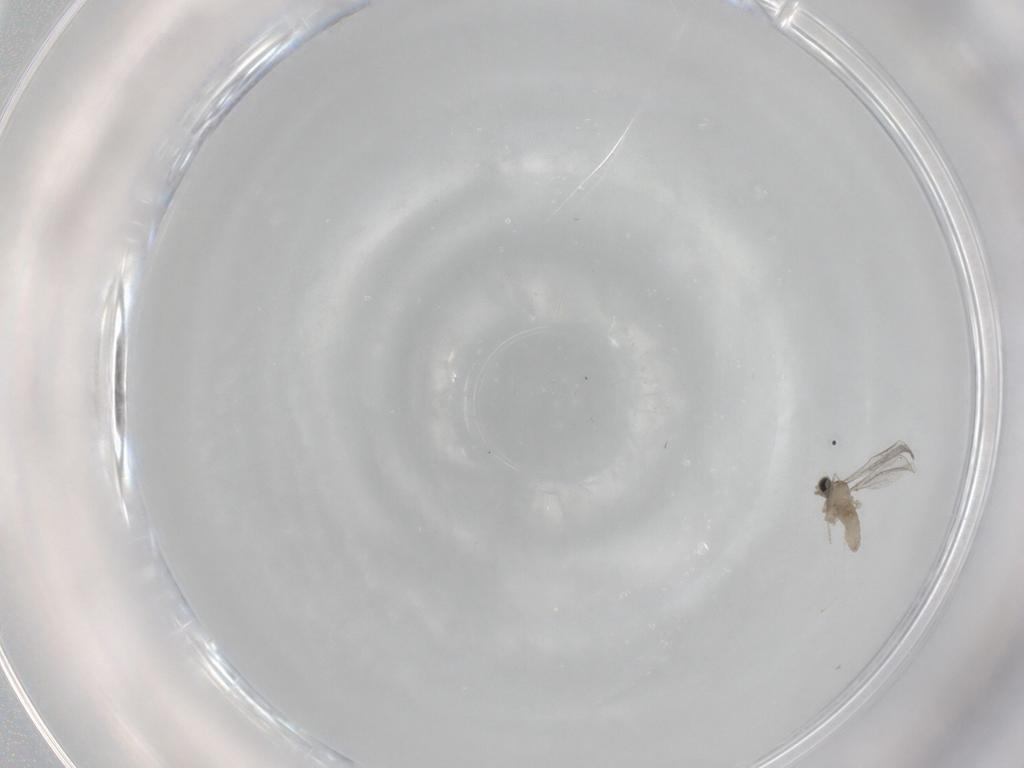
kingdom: Animalia
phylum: Arthropoda
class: Insecta
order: Diptera
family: Cecidomyiidae
